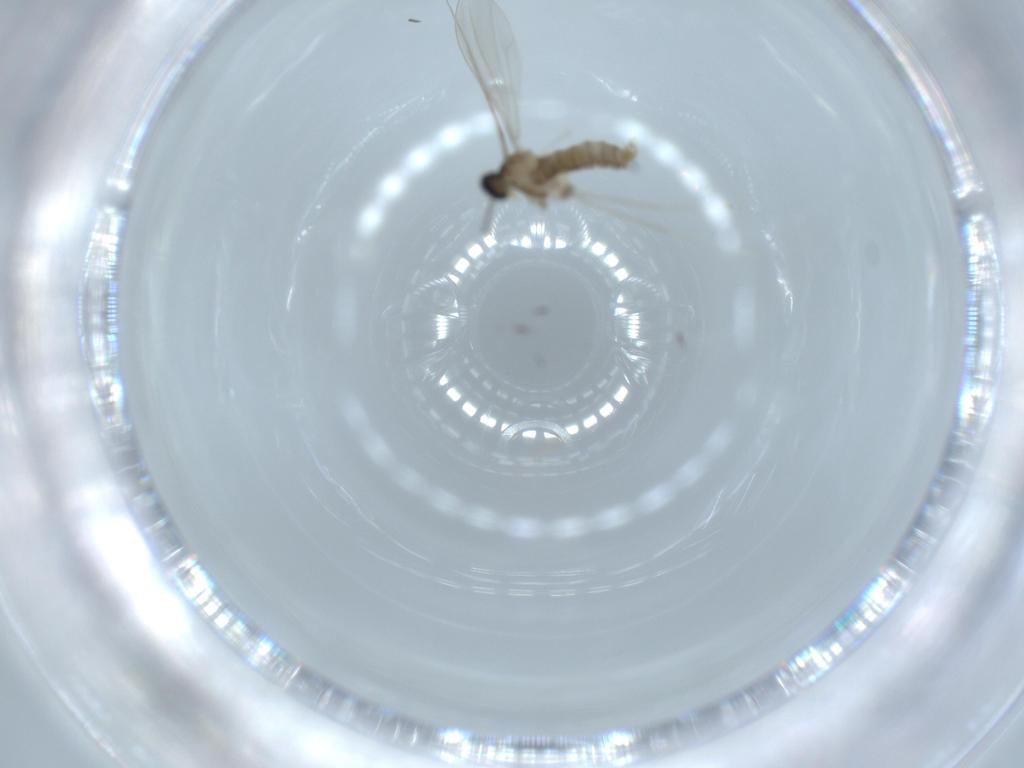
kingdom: Animalia
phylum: Arthropoda
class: Insecta
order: Diptera
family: Cecidomyiidae
